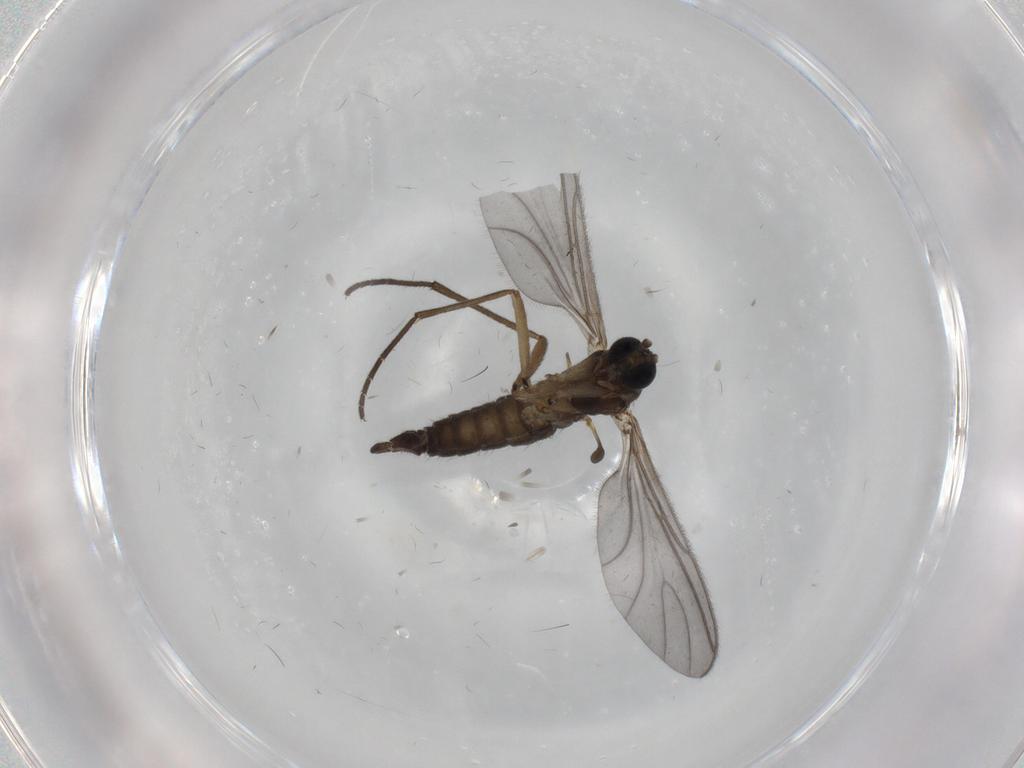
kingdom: Animalia
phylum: Arthropoda
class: Insecta
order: Diptera
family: Sciaridae
